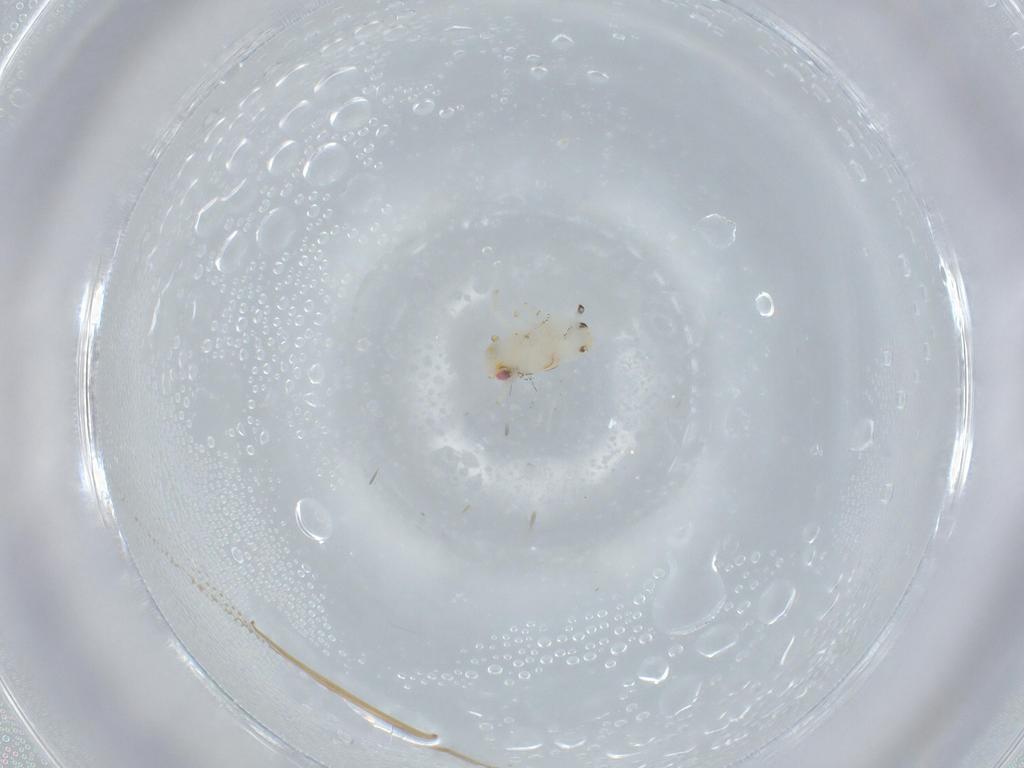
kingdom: Animalia
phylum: Arthropoda
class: Insecta
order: Hemiptera
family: Nogodinidae
